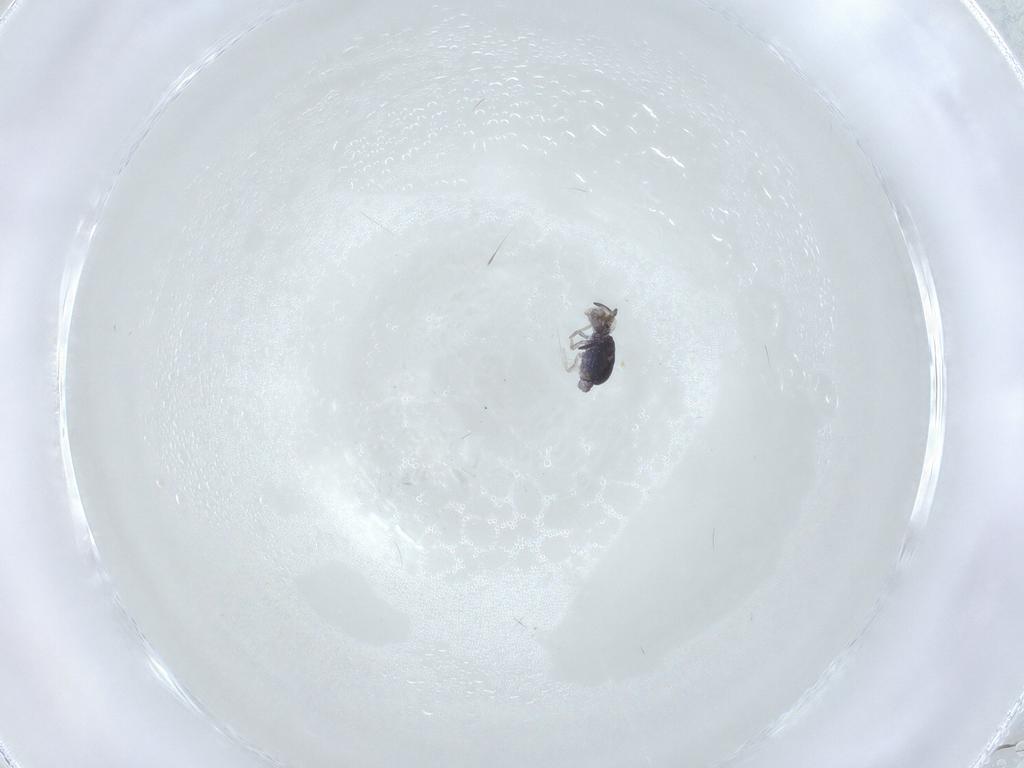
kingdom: Animalia
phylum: Arthropoda
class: Collembola
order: Symphypleona
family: Katiannidae
